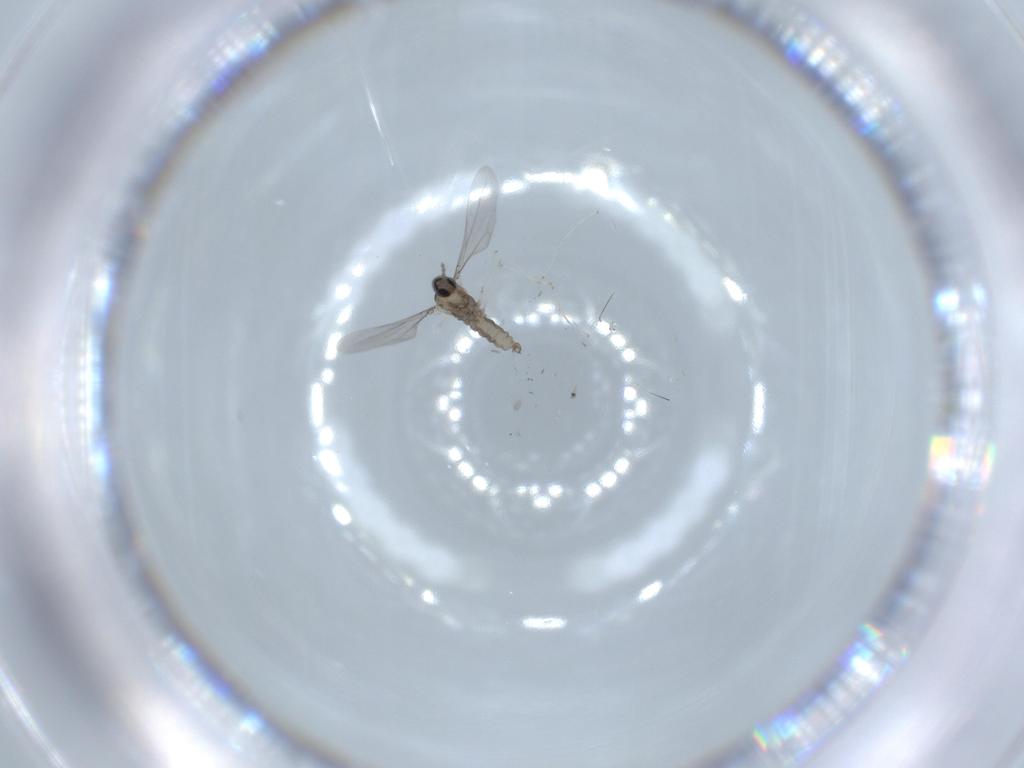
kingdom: Animalia
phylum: Arthropoda
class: Insecta
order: Diptera
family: Cecidomyiidae
